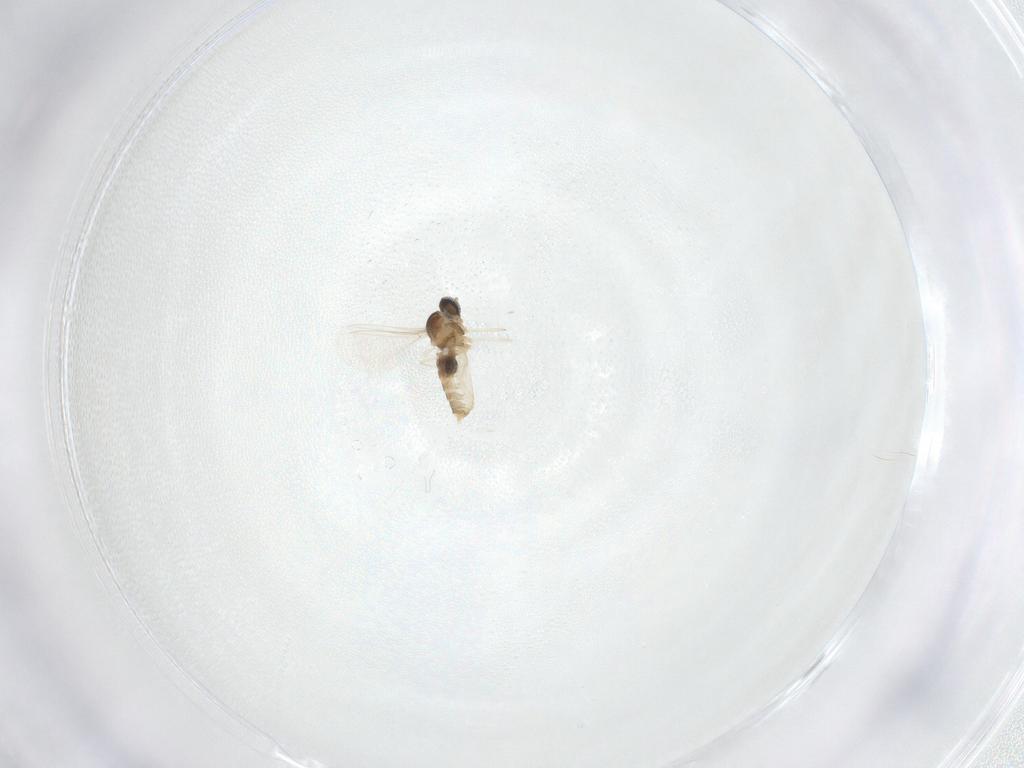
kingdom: Animalia
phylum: Arthropoda
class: Insecta
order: Diptera
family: Cecidomyiidae
